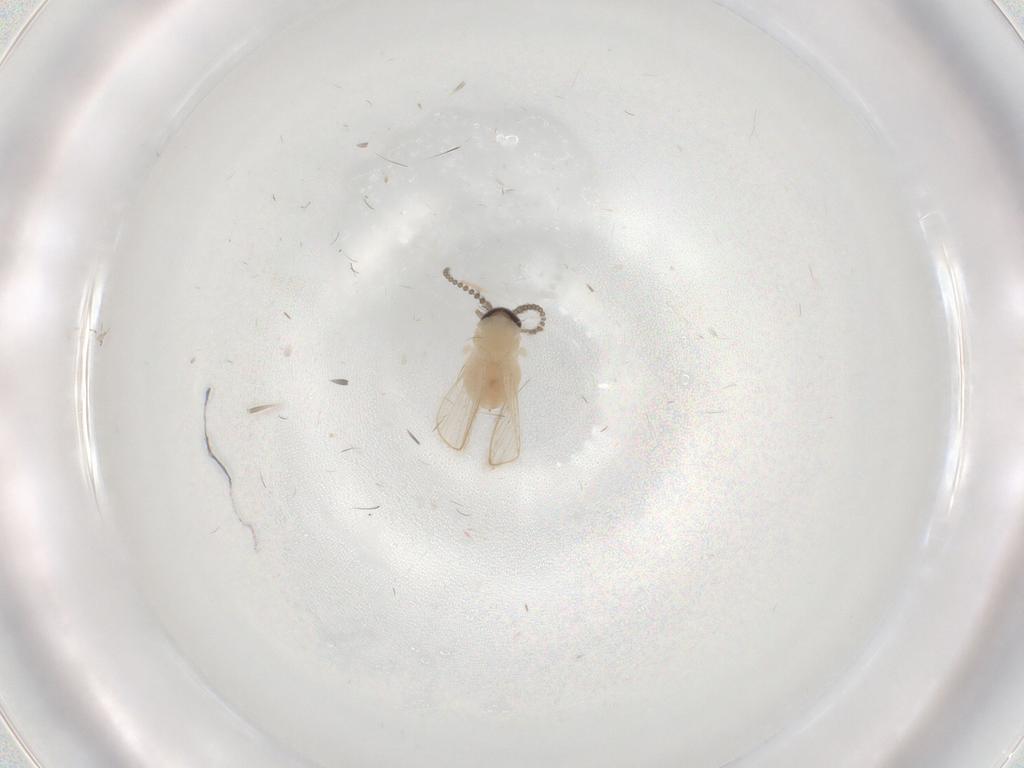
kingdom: Animalia
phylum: Arthropoda
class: Insecta
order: Diptera
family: Psychodidae
